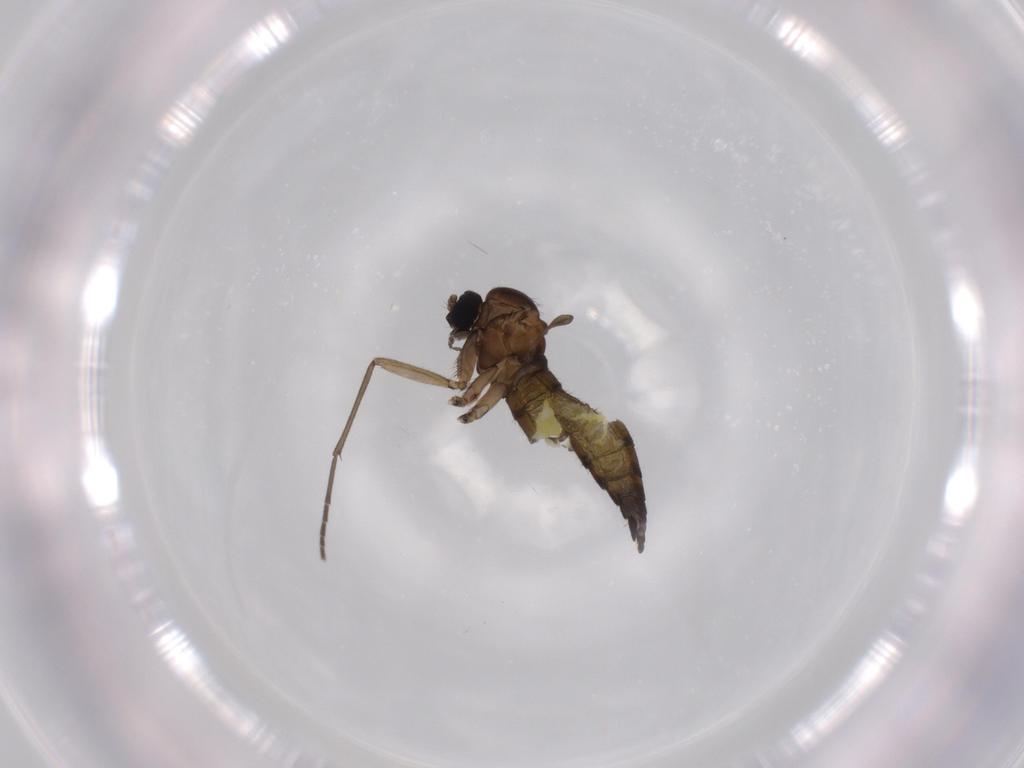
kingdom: Animalia
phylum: Arthropoda
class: Insecta
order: Diptera
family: Sciaridae
